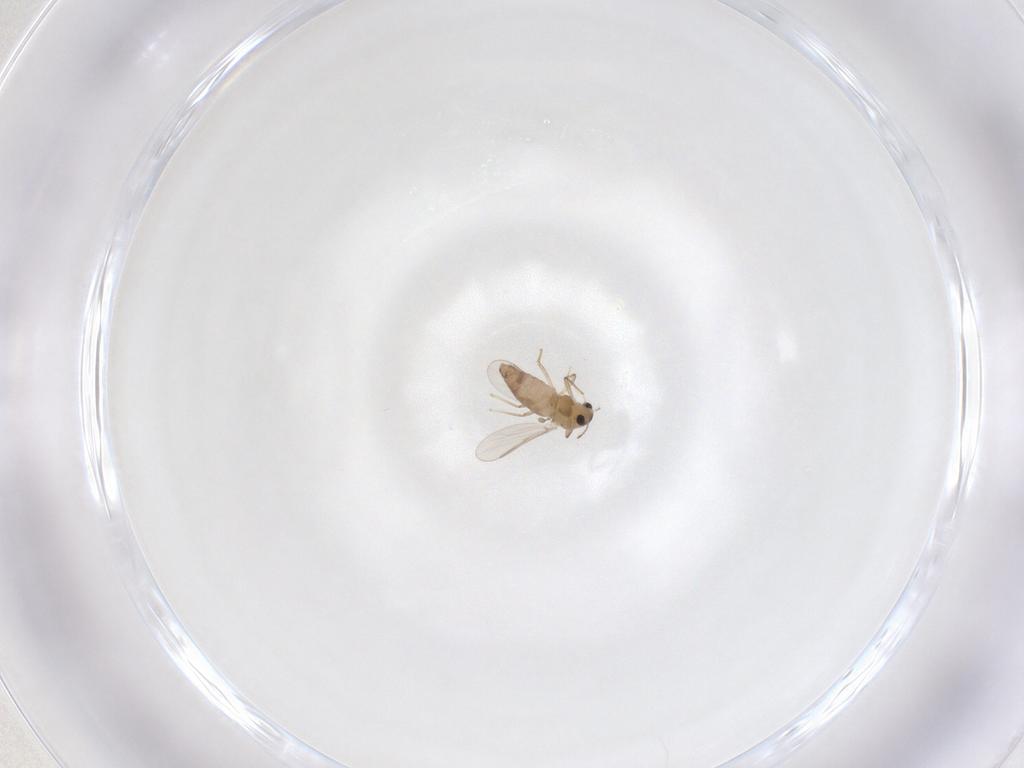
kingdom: Animalia
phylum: Arthropoda
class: Insecta
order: Diptera
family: Chironomidae
